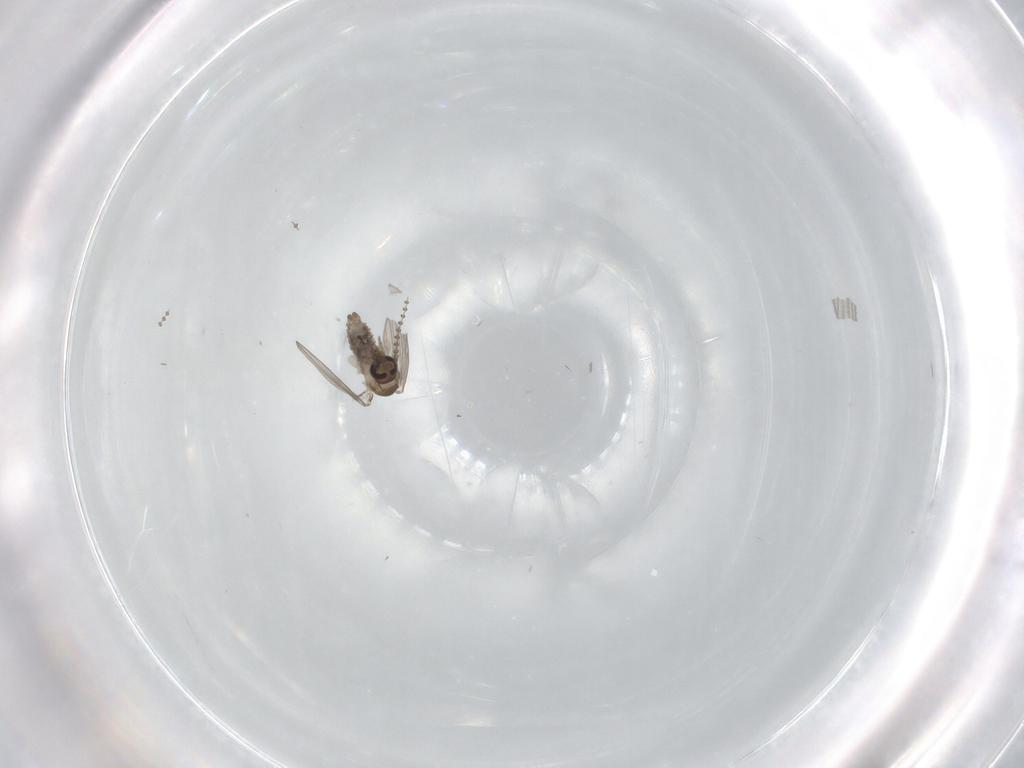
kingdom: Animalia
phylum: Arthropoda
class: Insecta
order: Diptera
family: Psychodidae
